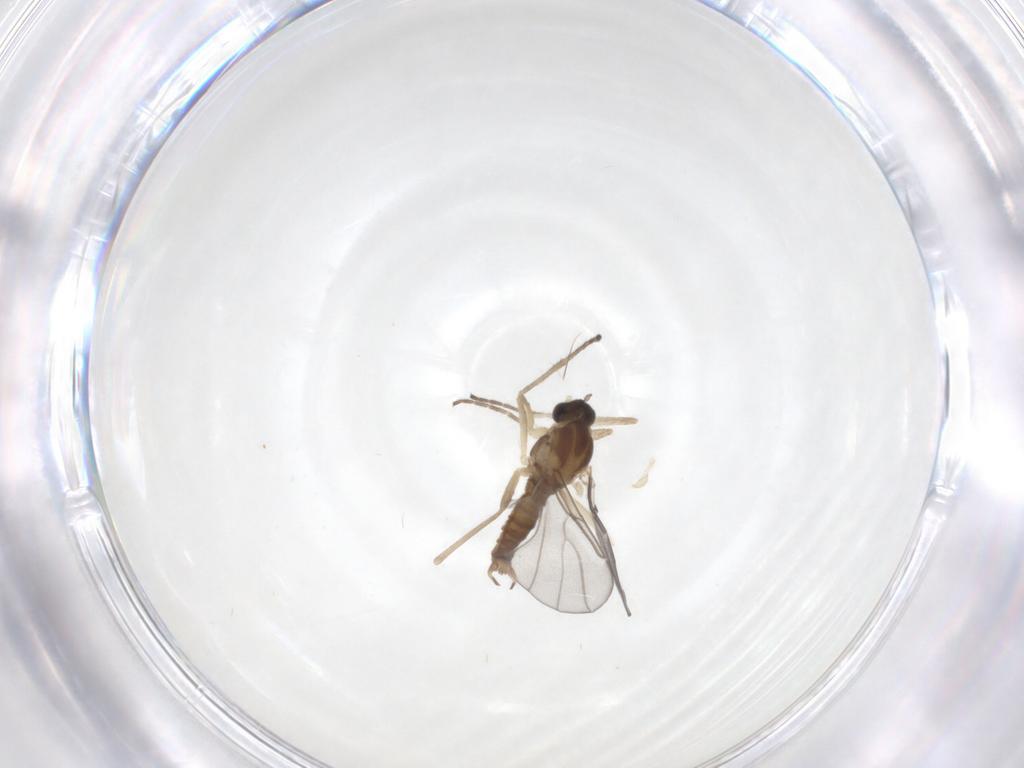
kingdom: Animalia
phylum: Arthropoda
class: Insecta
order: Diptera
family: Cecidomyiidae
